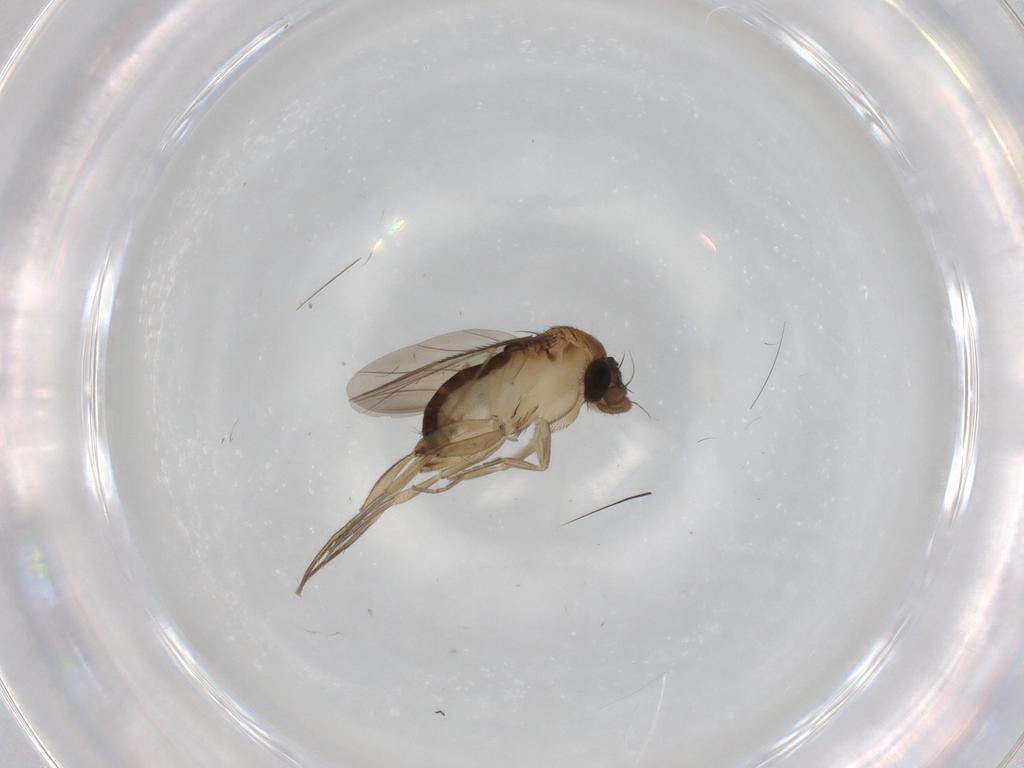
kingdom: Animalia
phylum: Arthropoda
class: Insecta
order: Diptera
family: Phoridae
